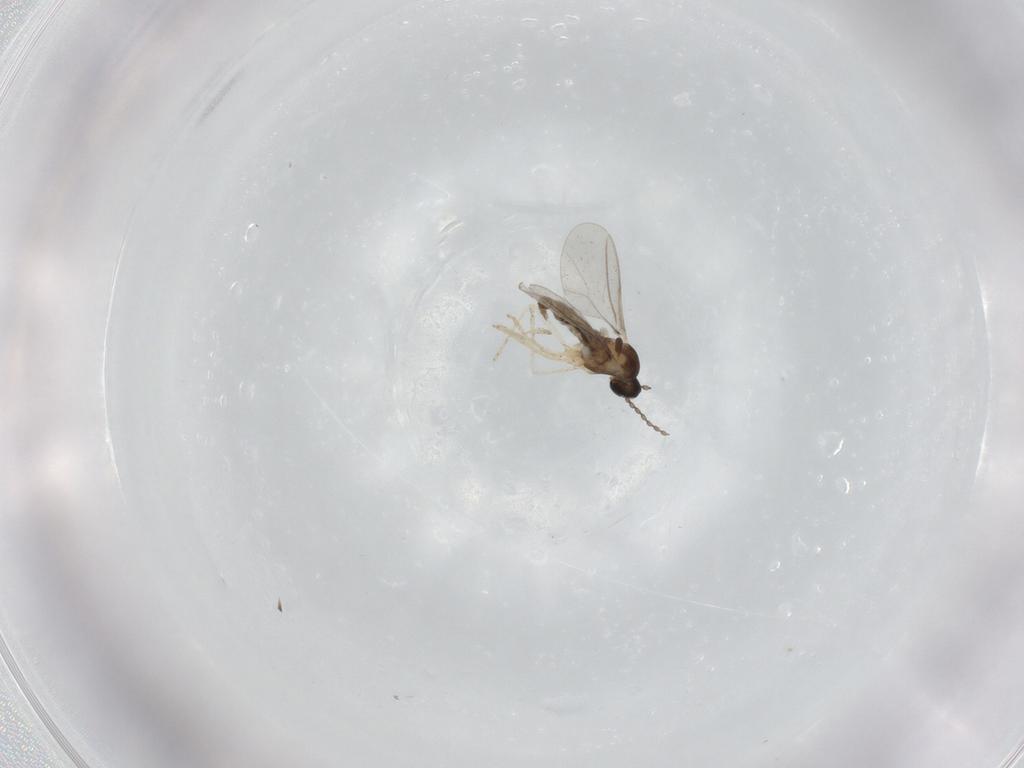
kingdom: Animalia
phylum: Arthropoda
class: Insecta
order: Diptera
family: Cecidomyiidae
